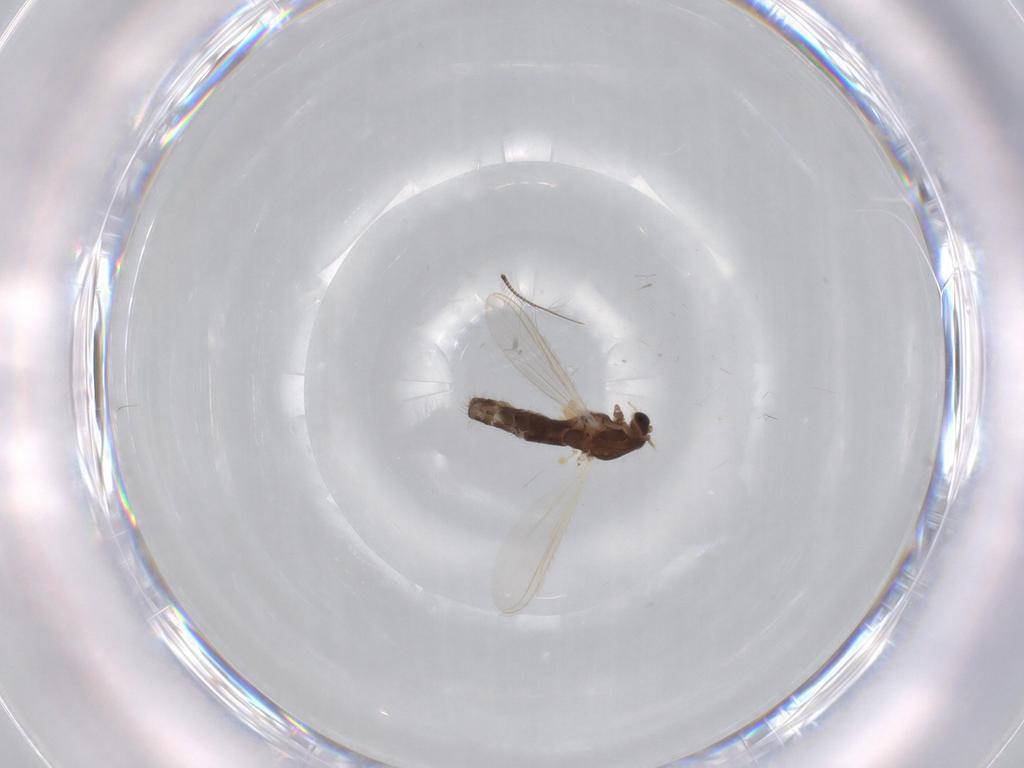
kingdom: Animalia
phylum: Arthropoda
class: Insecta
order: Diptera
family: Chironomidae
